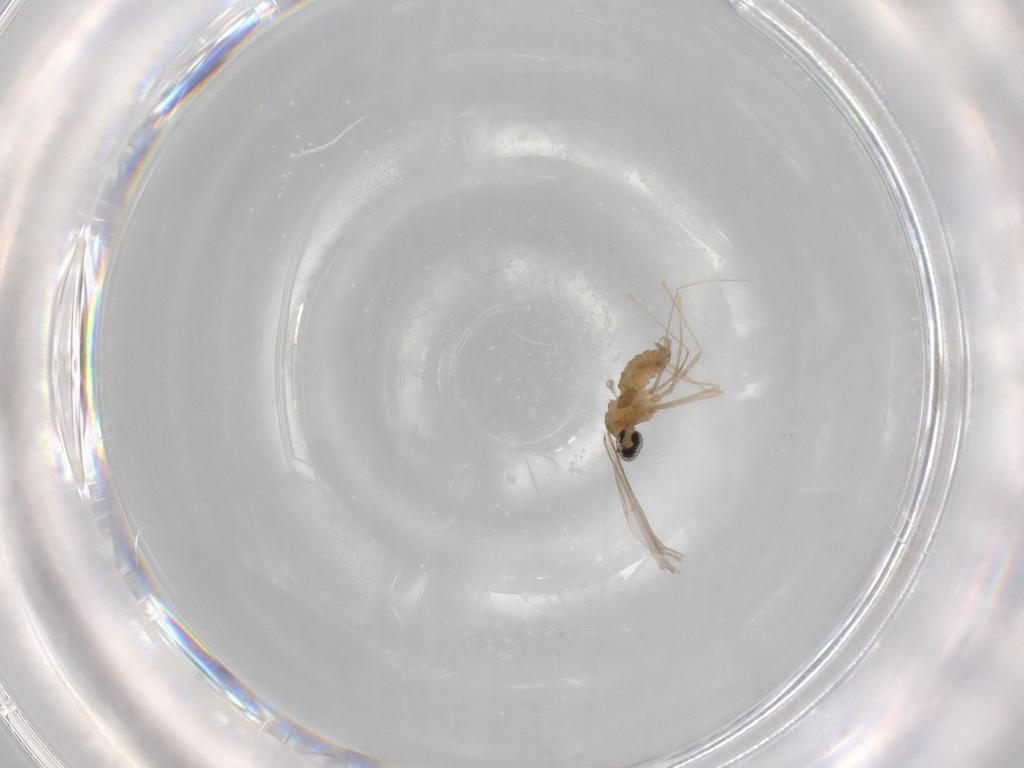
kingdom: Animalia
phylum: Arthropoda
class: Insecta
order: Diptera
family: Cecidomyiidae
